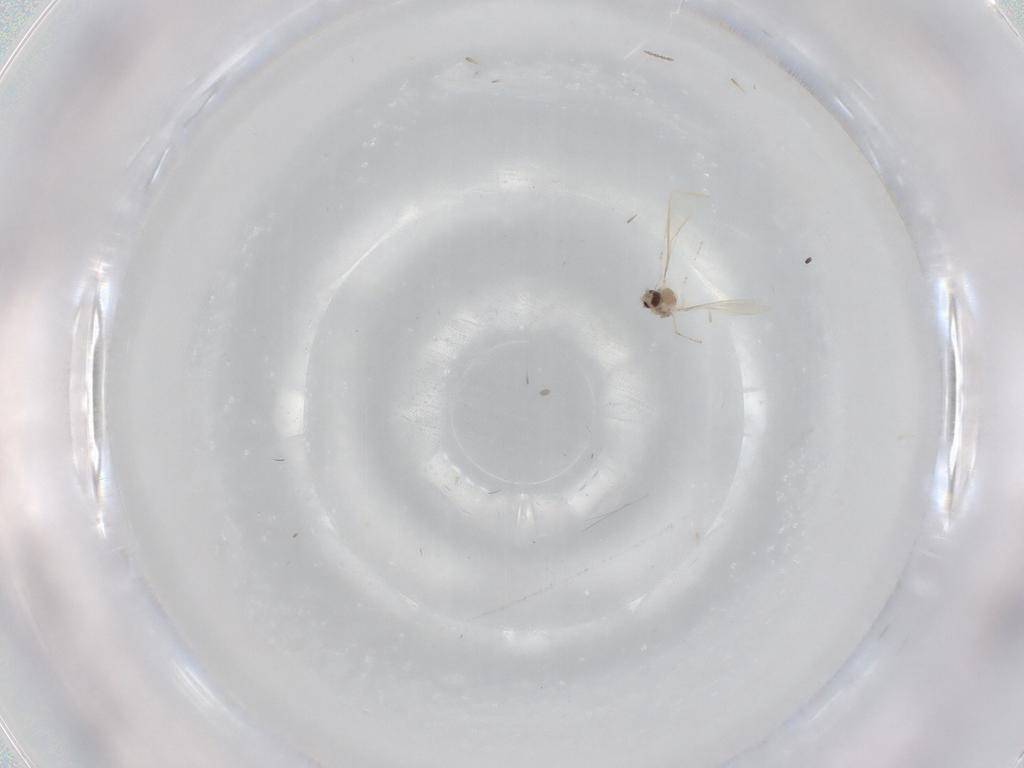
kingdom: Animalia
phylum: Arthropoda
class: Insecta
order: Diptera
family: Cecidomyiidae
